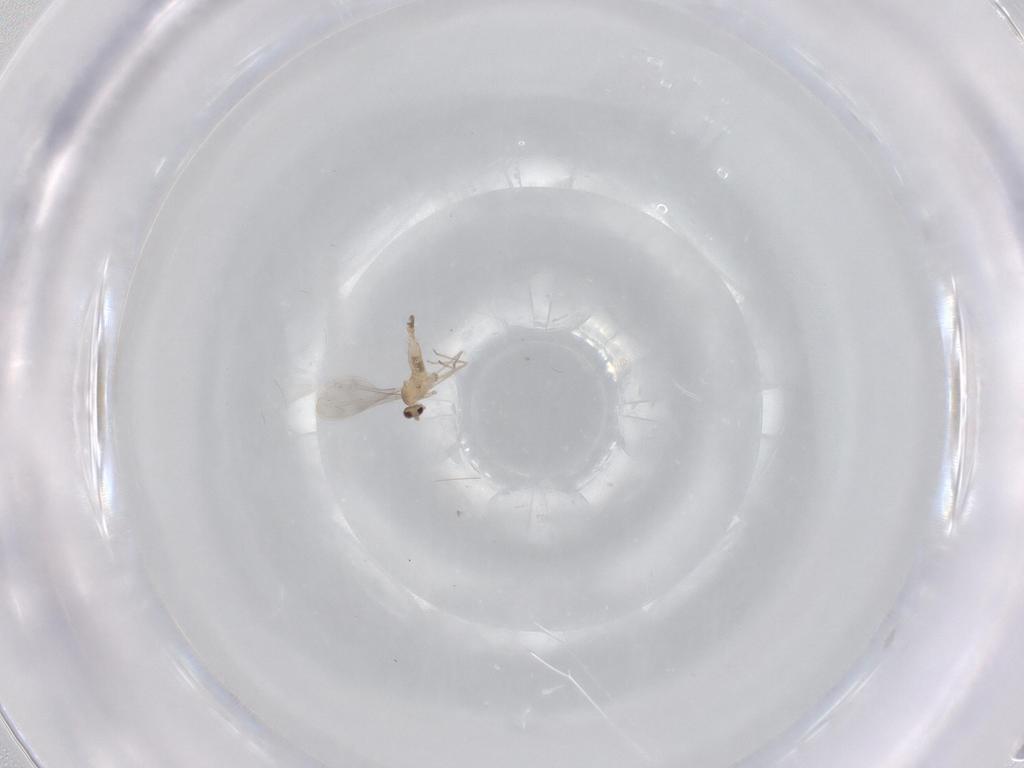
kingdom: Animalia
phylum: Arthropoda
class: Insecta
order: Diptera
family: Cecidomyiidae
